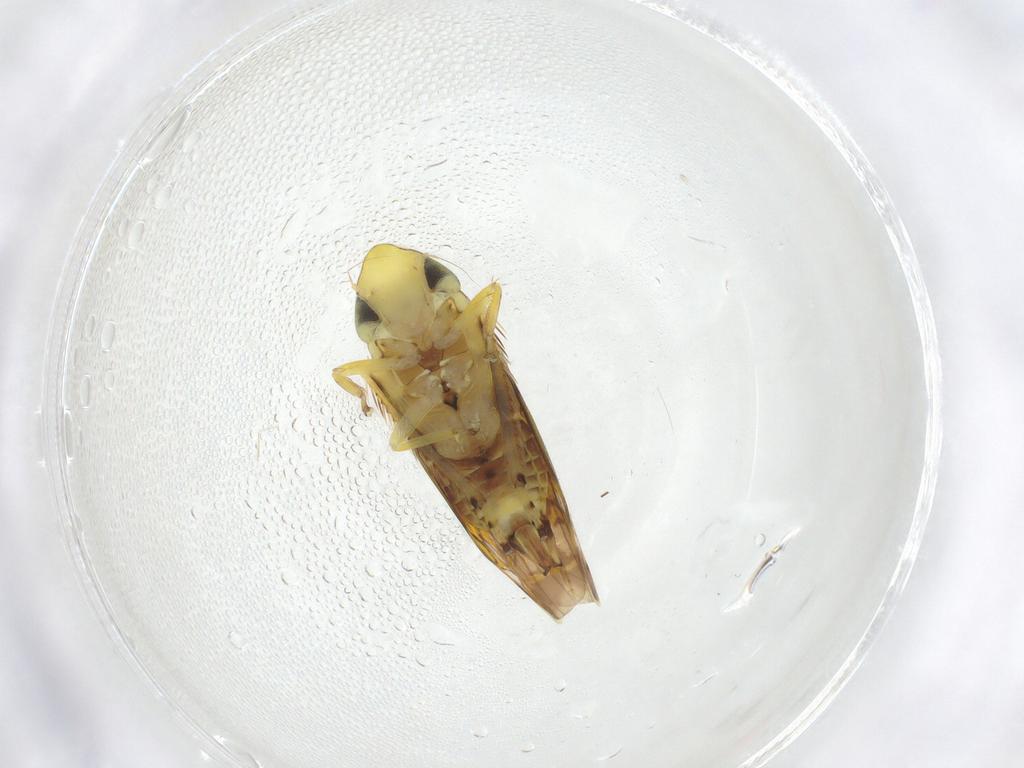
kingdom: Animalia
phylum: Arthropoda
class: Insecta
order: Hemiptera
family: Cicadellidae
